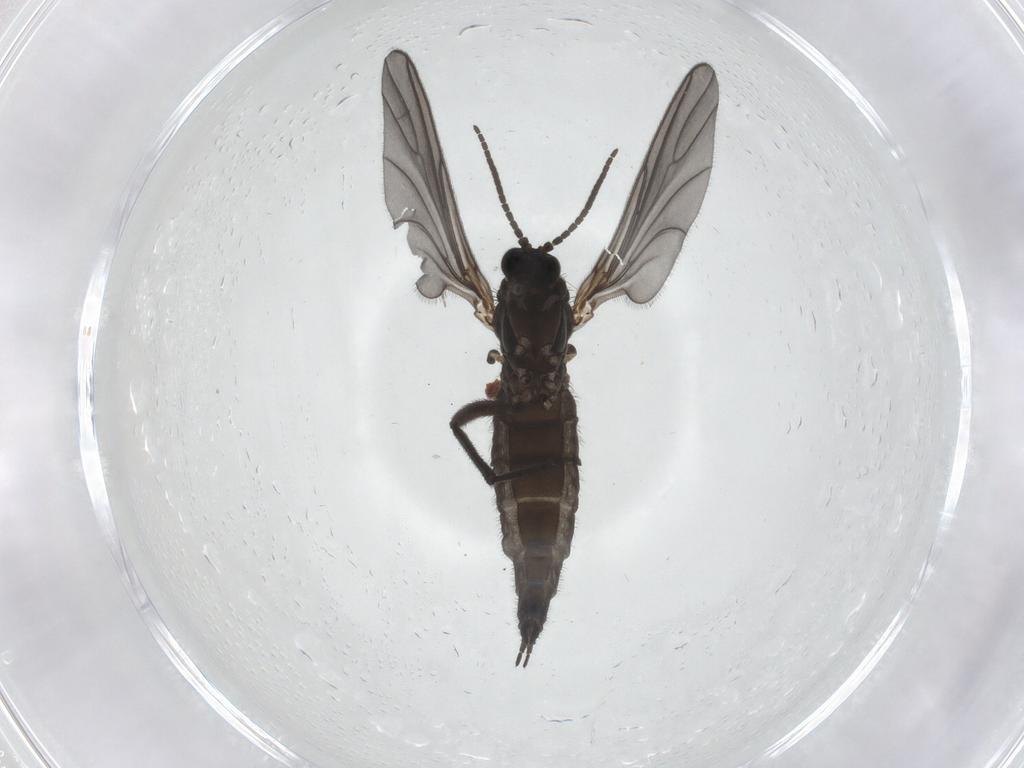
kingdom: Animalia
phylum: Arthropoda
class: Insecta
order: Diptera
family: Sciaridae
